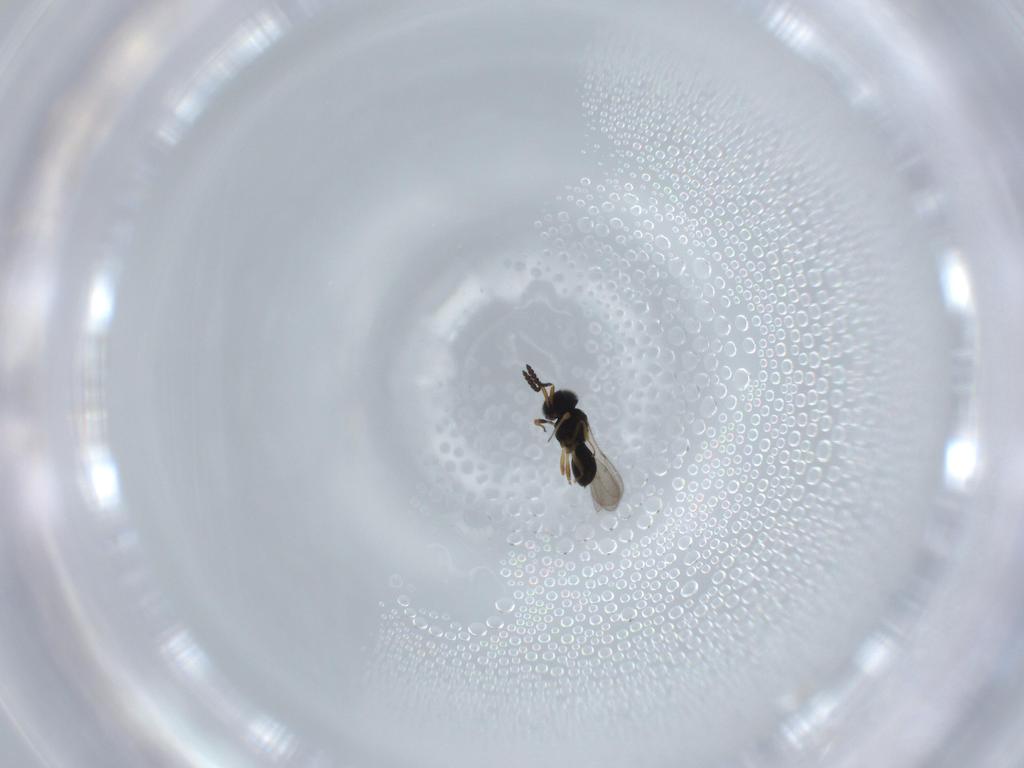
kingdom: Animalia
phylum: Arthropoda
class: Insecta
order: Hymenoptera
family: Scelionidae
